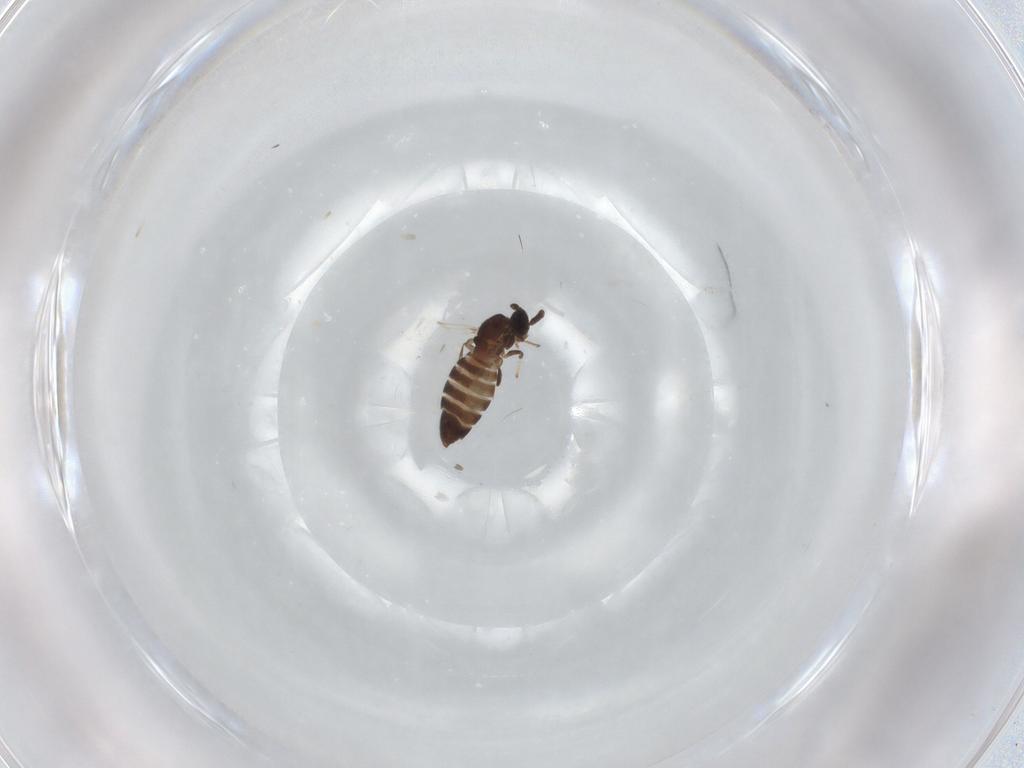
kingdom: Animalia
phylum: Arthropoda
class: Insecta
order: Diptera
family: Scatopsidae
